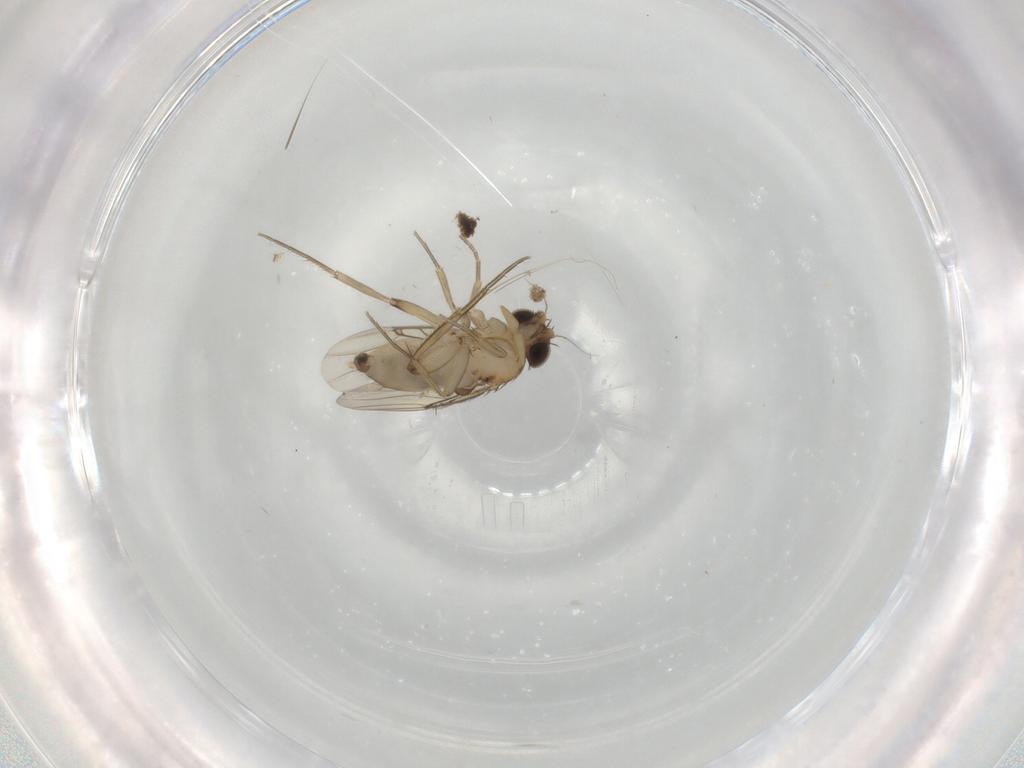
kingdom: Animalia
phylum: Arthropoda
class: Insecta
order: Diptera
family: Phoridae
